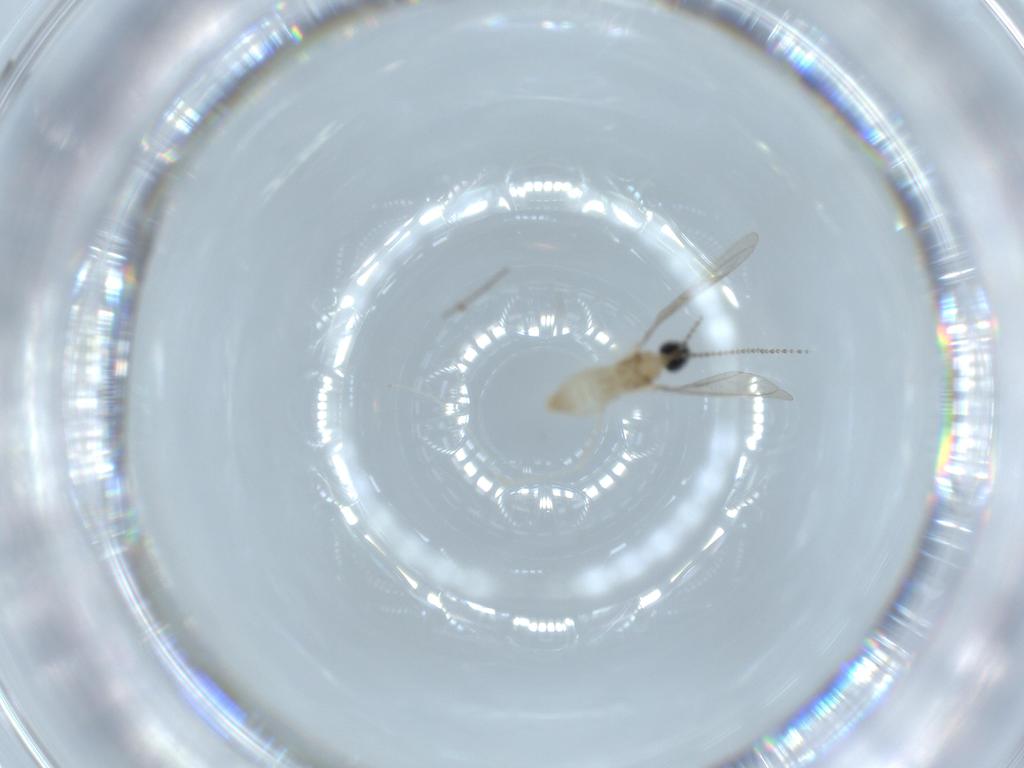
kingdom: Animalia
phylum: Arthropoda
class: Insecta
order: Diptera
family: Cecidomyiidae
